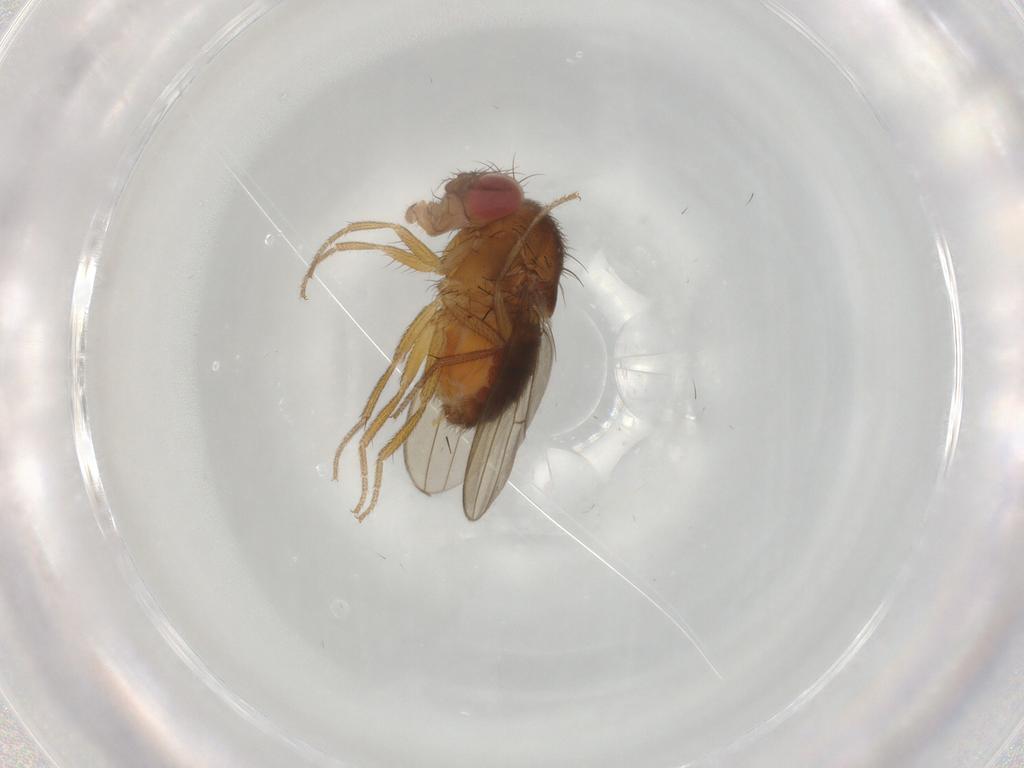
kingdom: Animalia
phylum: Arthropoda
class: Insecta
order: Diptera
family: Drosophilidae
